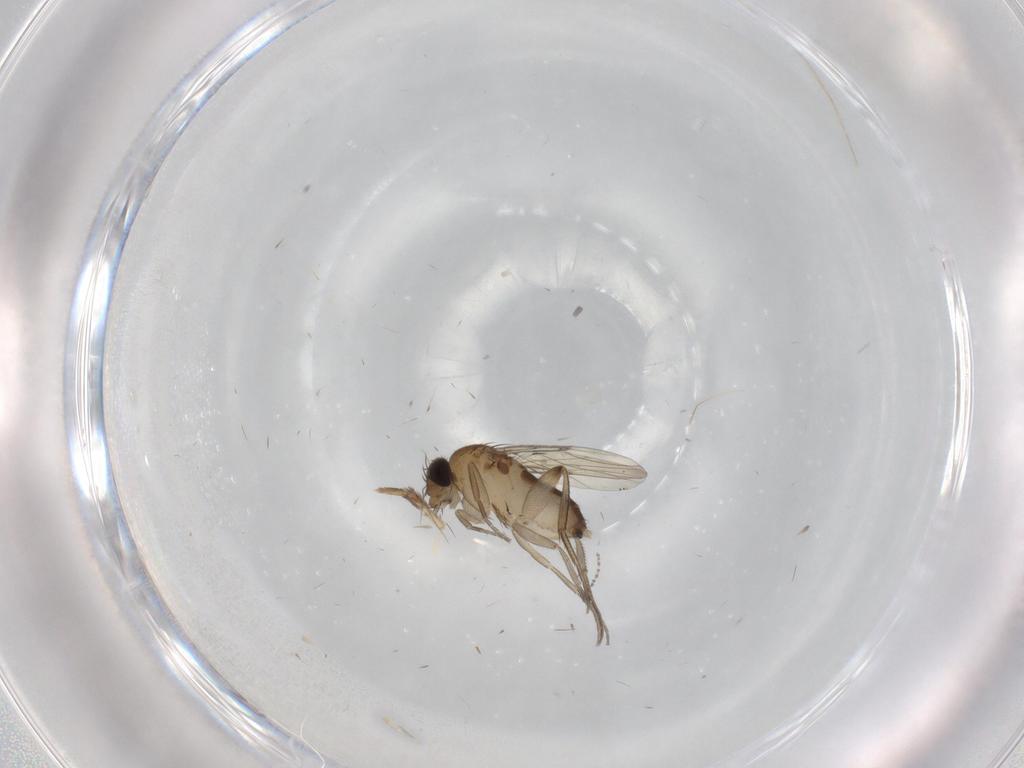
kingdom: Animalia
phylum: Arthropoda
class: Insecta
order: Diptera
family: Phoridae
